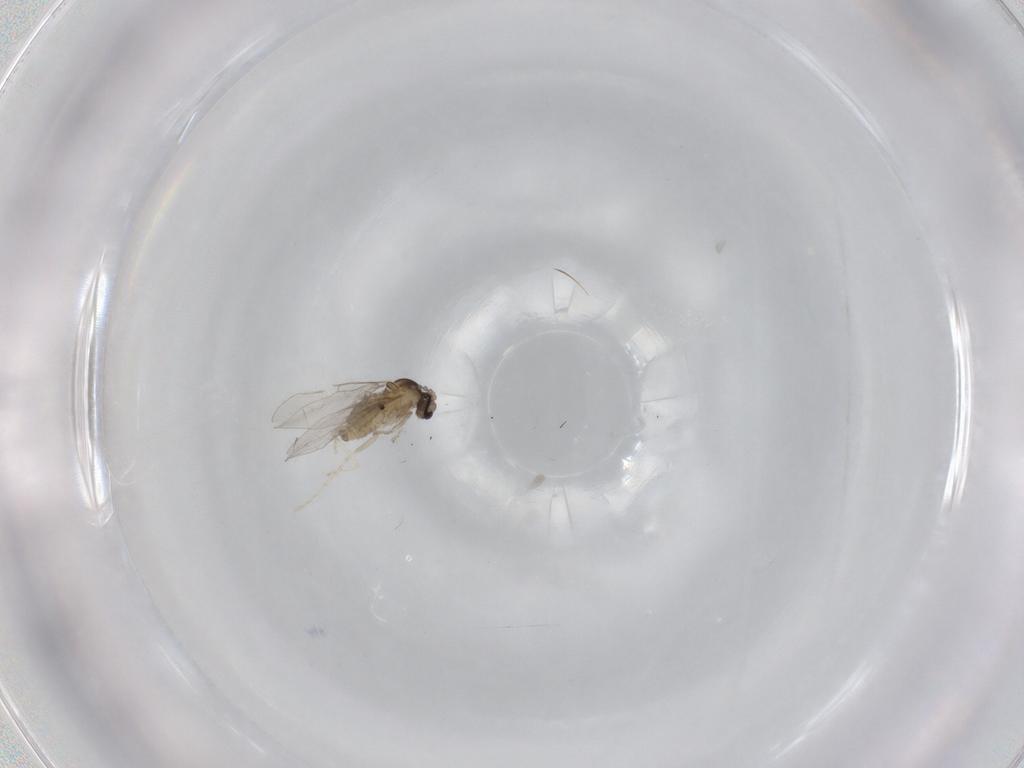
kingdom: Animalia
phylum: Arthropoda
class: Insecta
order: Diptera
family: Cecidomyiidae
